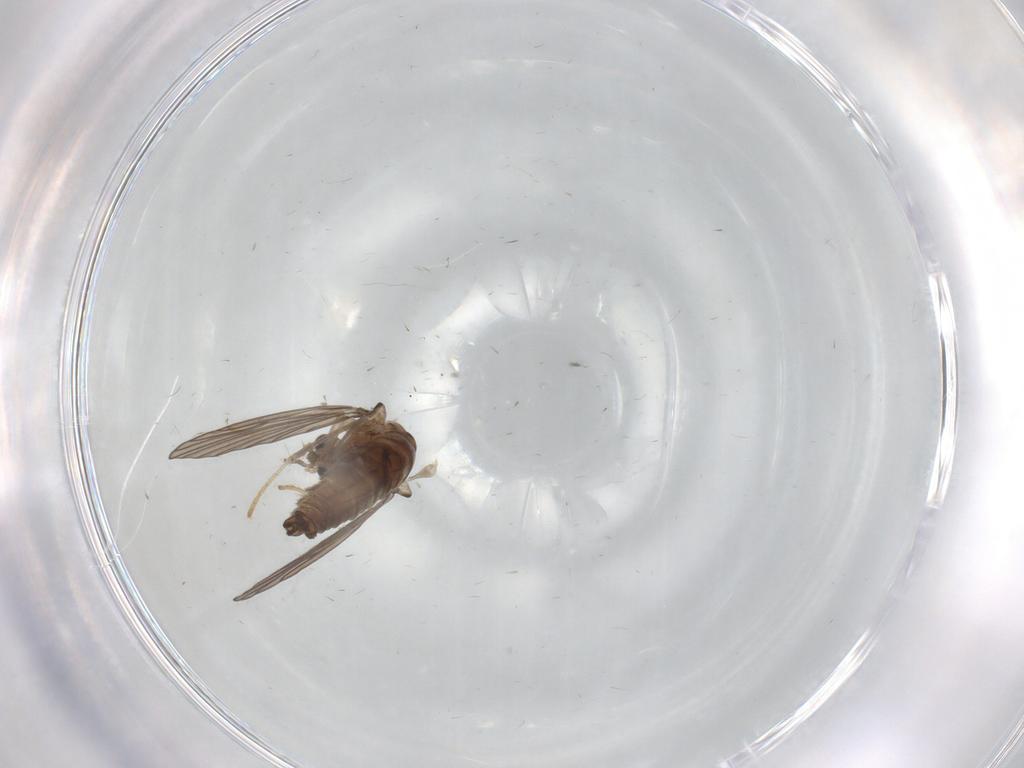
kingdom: Animalia
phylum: Arthropoda
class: Insecta
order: Diptera
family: Psychodidae
